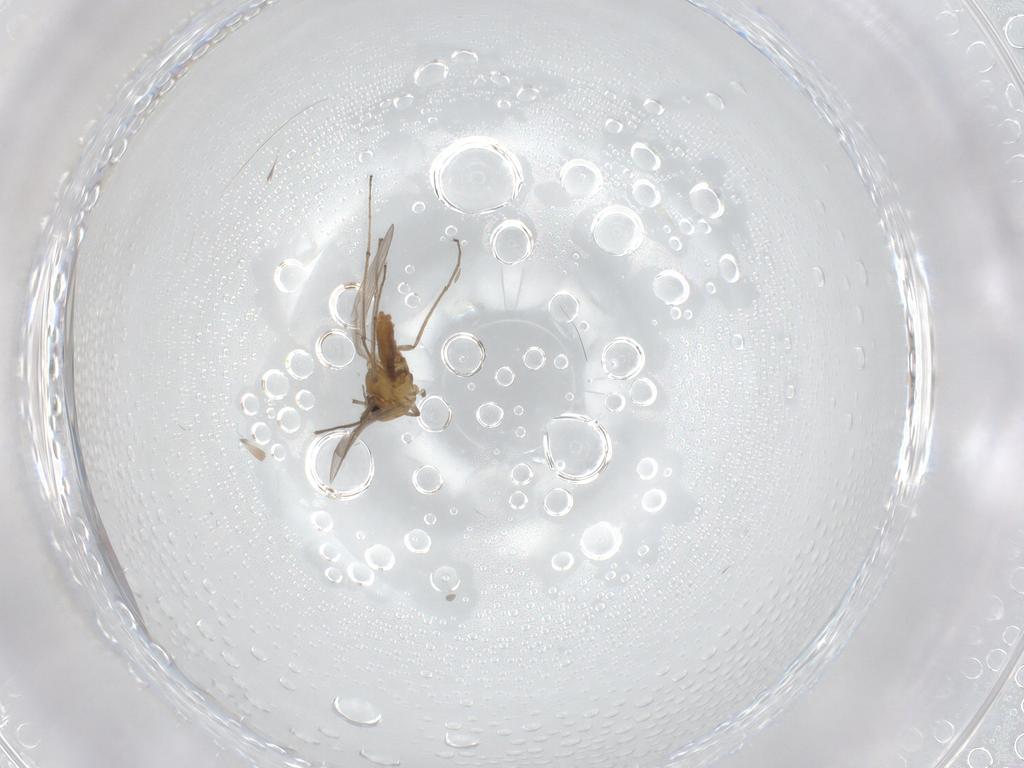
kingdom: Animalia
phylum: Arthropoda
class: Insecta
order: Diptera
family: Chironomidae
